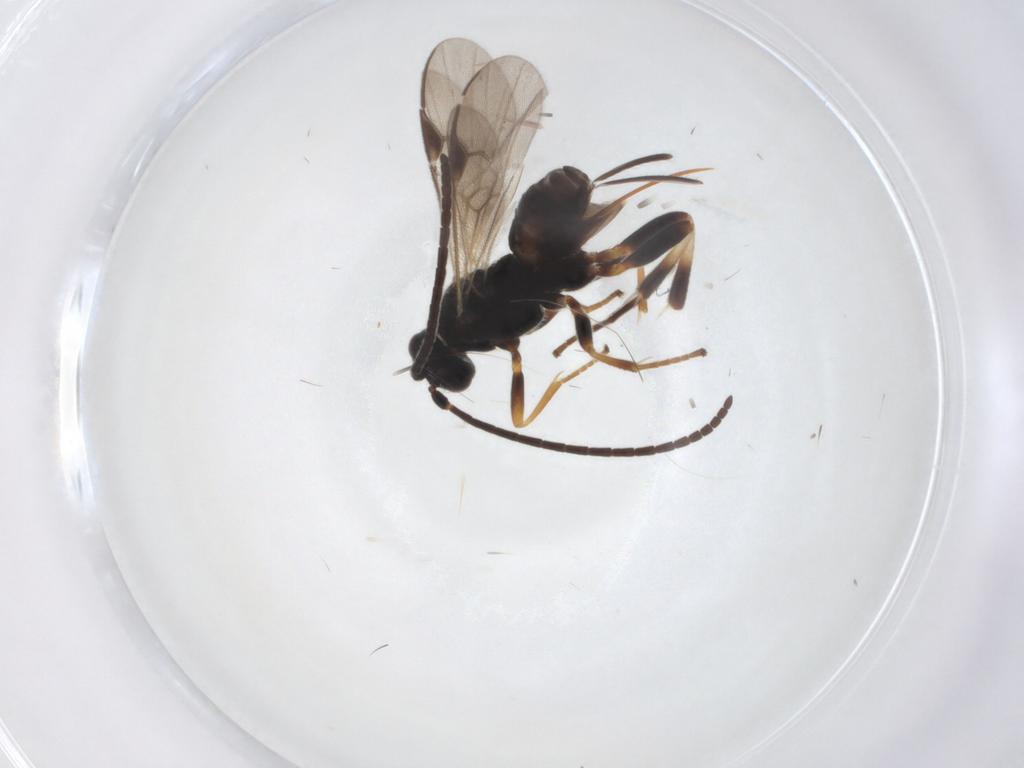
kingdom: Animalia
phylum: Arthropoda
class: Insecta
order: Hymenoptera
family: Braconidae
